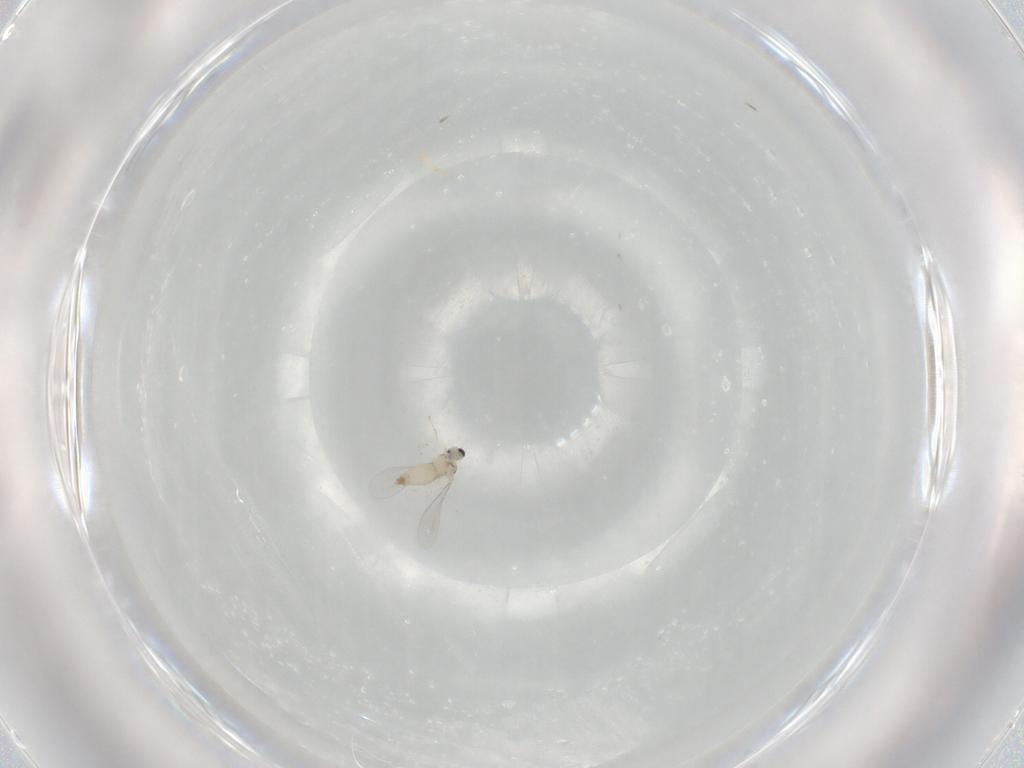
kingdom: Animalia
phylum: Arthropoda
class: Insecta
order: Diptera
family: Cecidomyiidae
